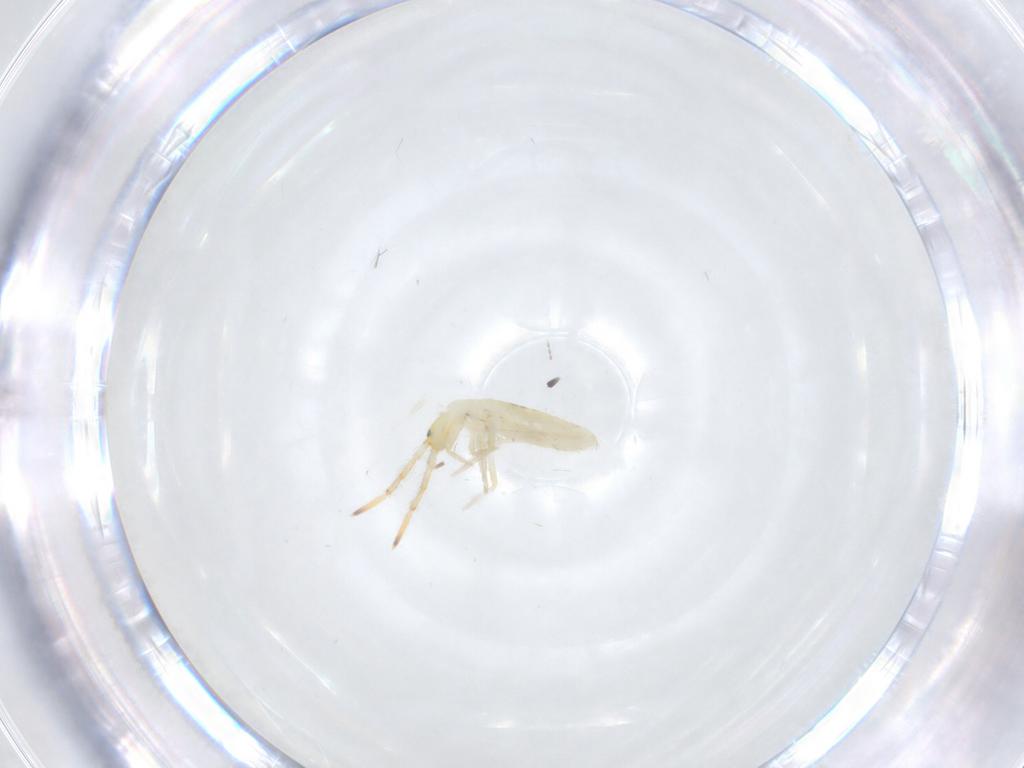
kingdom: Animalia
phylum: Arthropoda
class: Collembola
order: Entomobryomorpha
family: Entomobryidae
